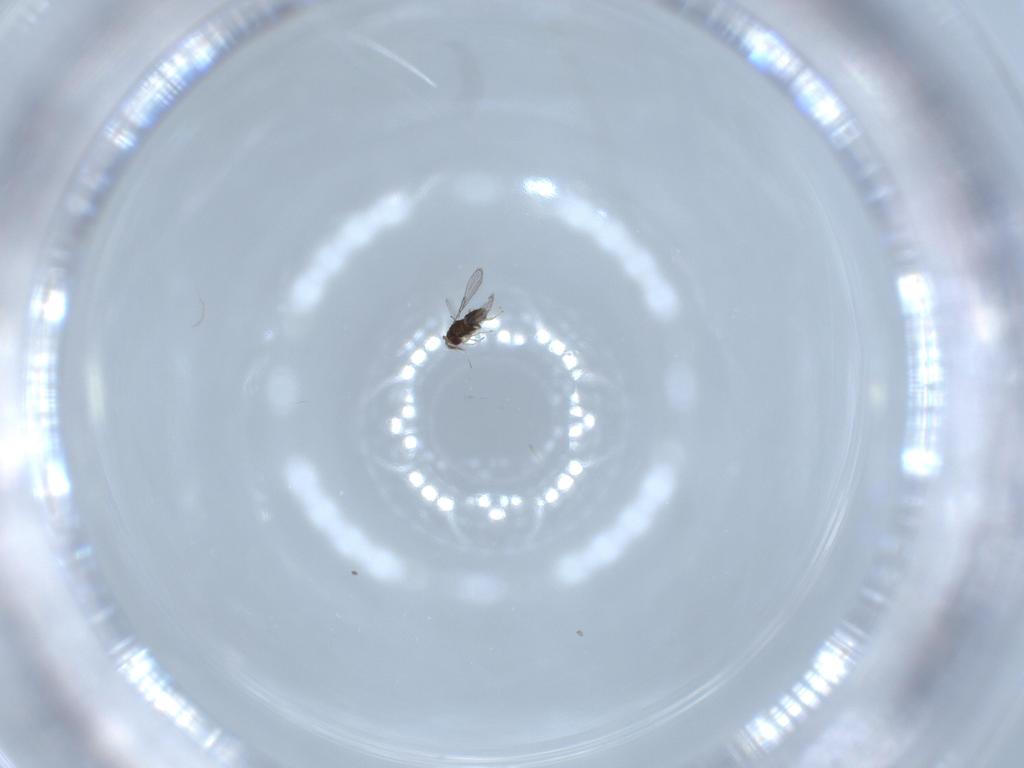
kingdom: Animalia
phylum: Arthropoda
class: Insecta
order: Hymenoptera
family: Trichogrammatidae
